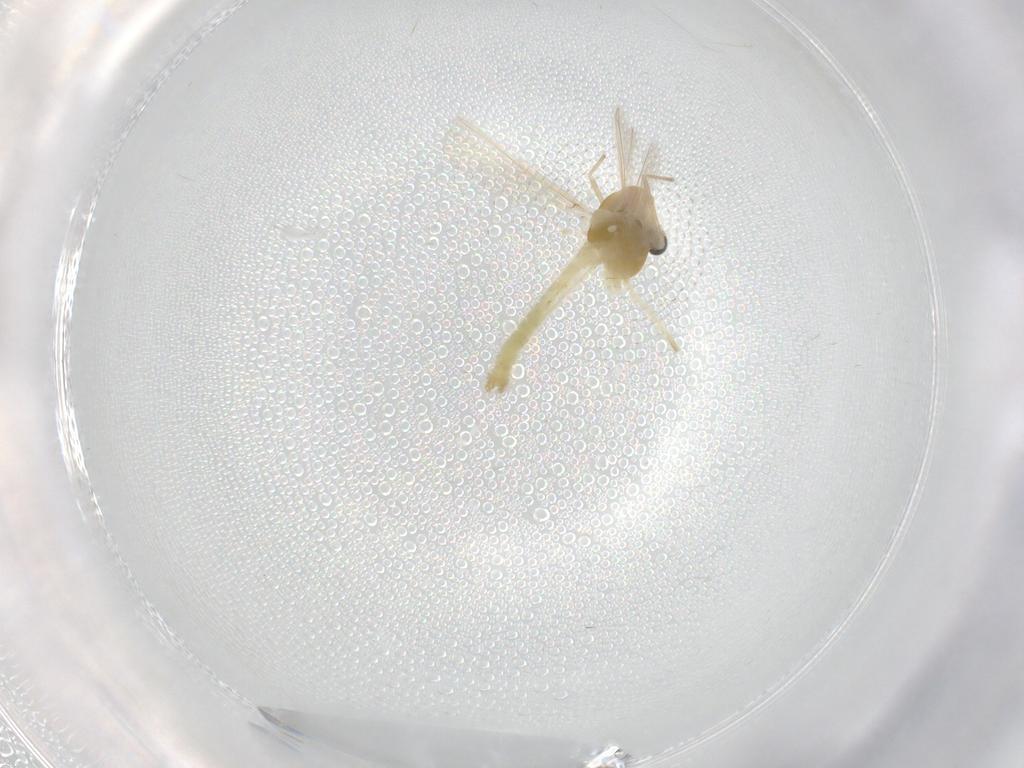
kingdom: Animalia
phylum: Arthropoda
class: Insecta
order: Diptera
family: Chironomidae
